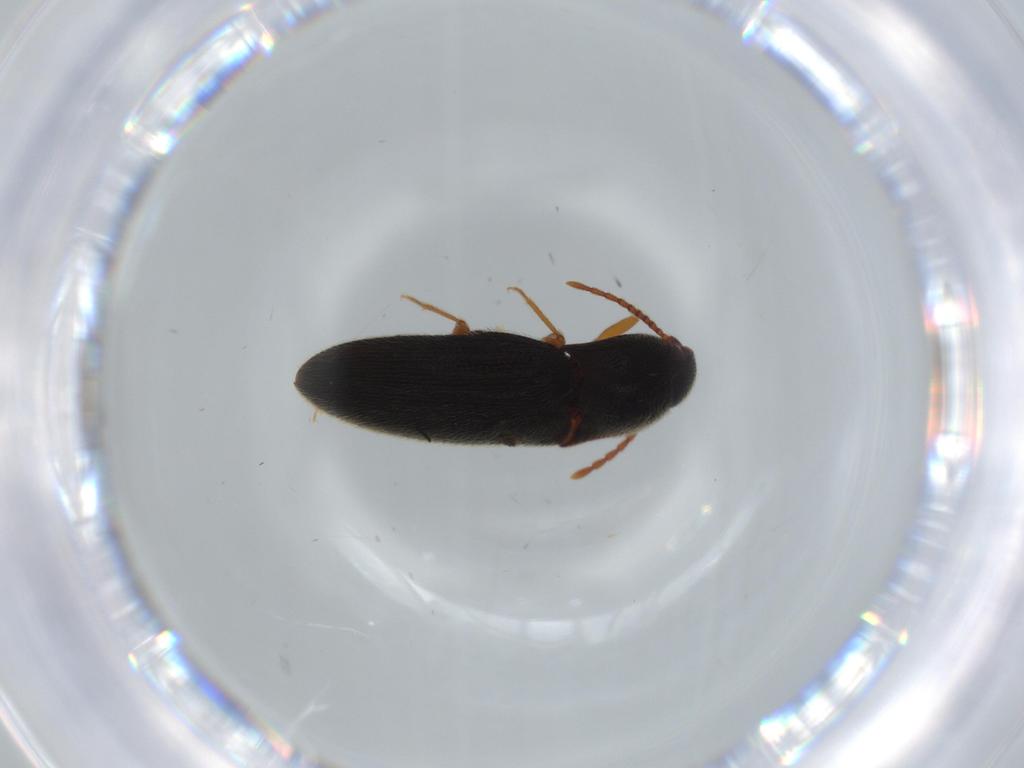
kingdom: Animalia
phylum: Arthropoda
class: Insecta
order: Coleoptera
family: Elateridae
